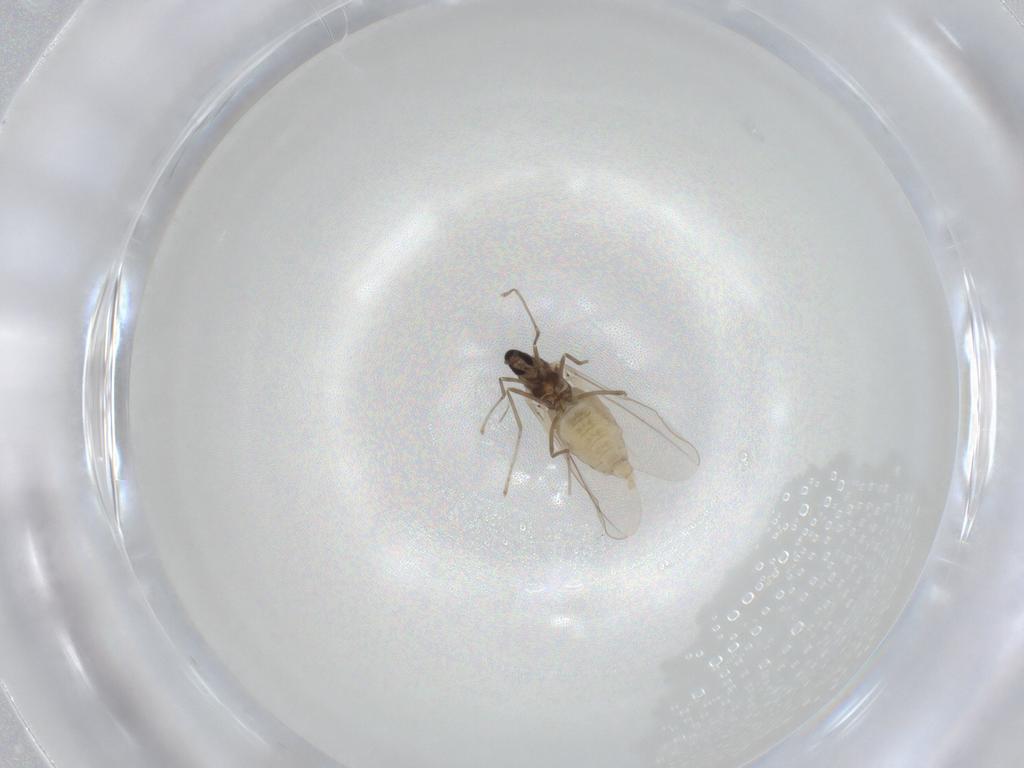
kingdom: Animalia
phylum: Arthropoda
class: Insecta
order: Diptera
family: Cecidomyiidae
